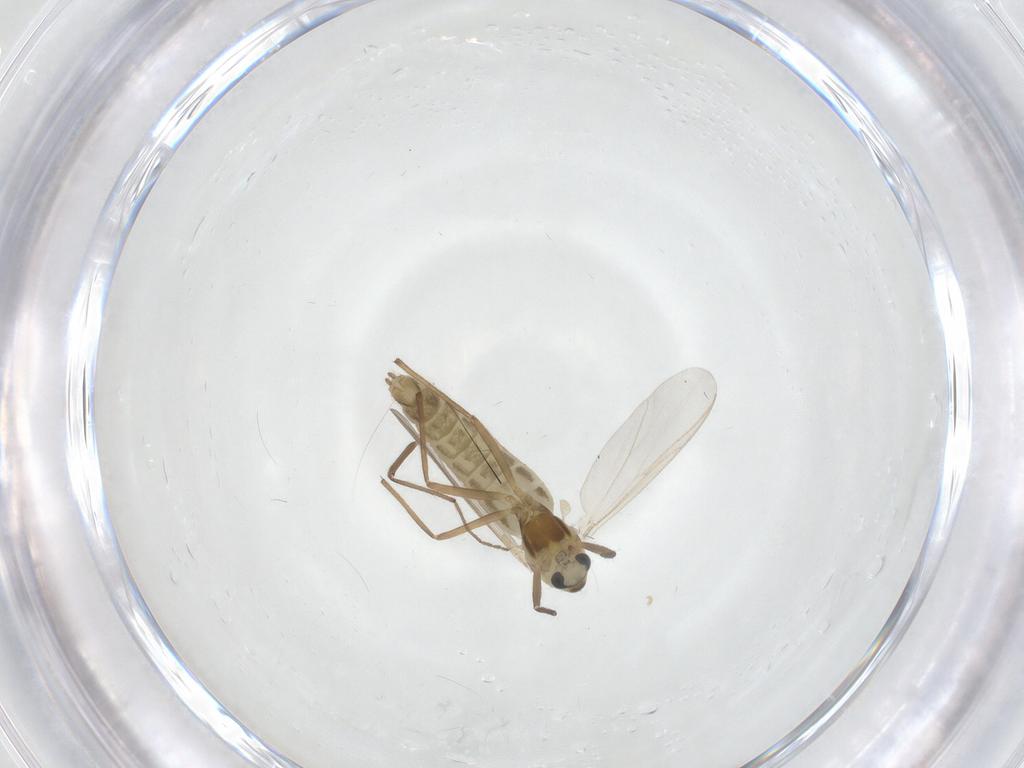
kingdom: Animalia
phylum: Arthropoda
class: Insecta
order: Diptera
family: Chironomidae
